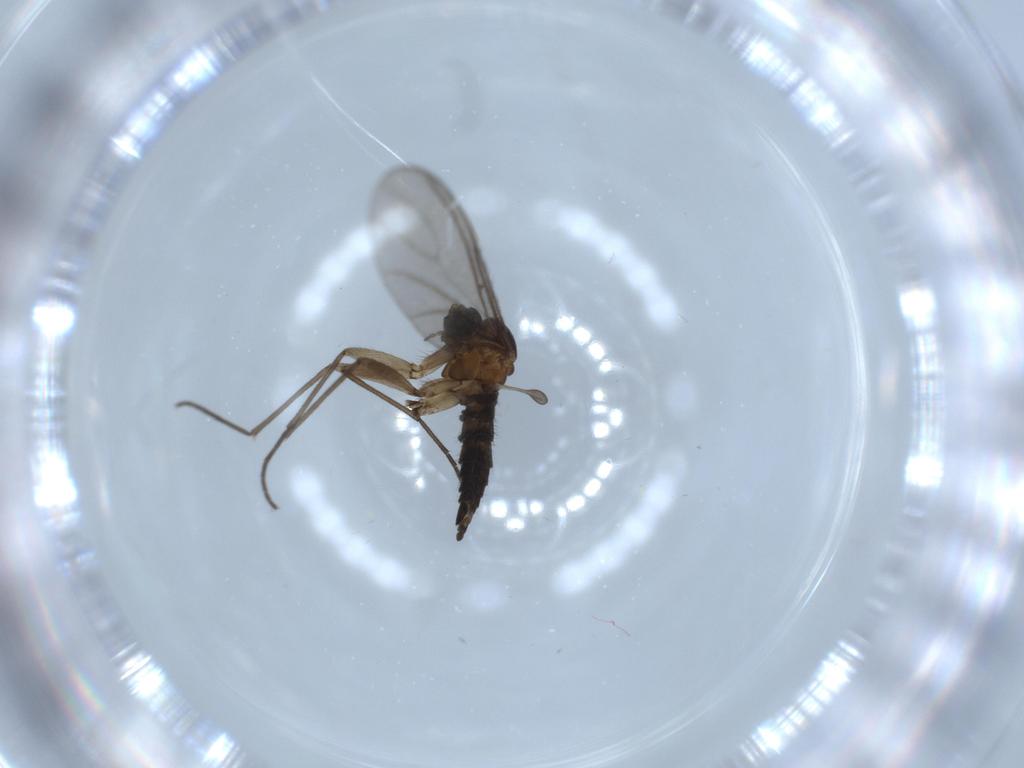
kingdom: Animalia
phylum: Arthropoda
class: Insecta
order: Diptera
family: Sciaridae
